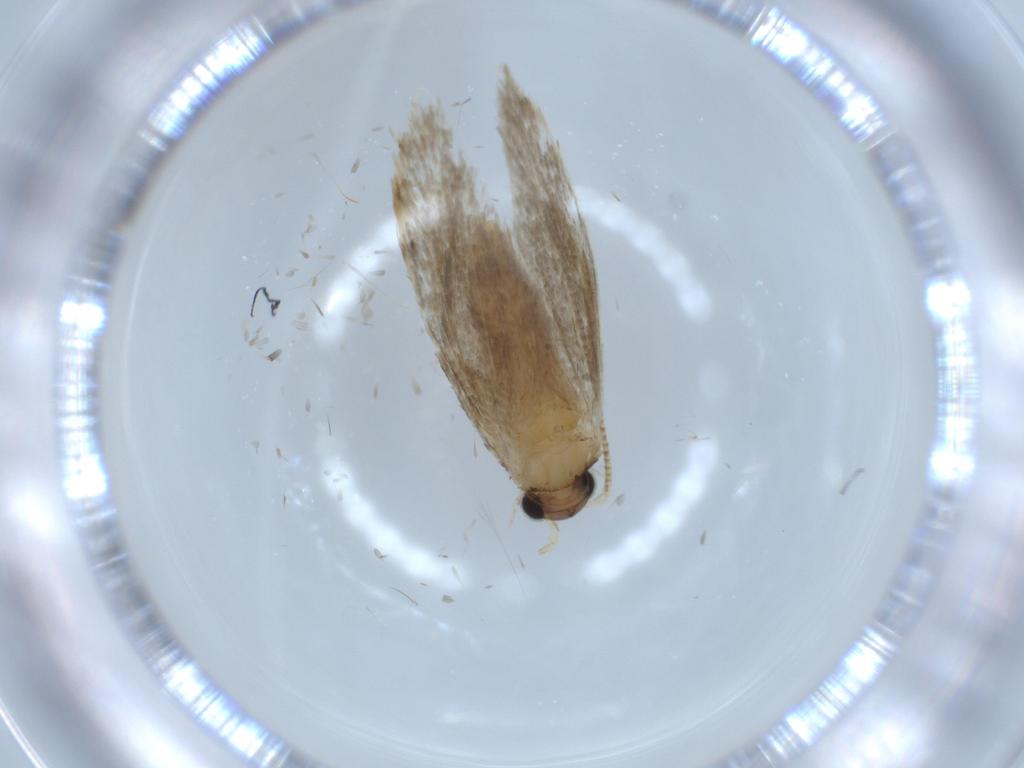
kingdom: Animalia
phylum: Arthropoda
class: Insecta
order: Lepidoptera
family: Tineidae
